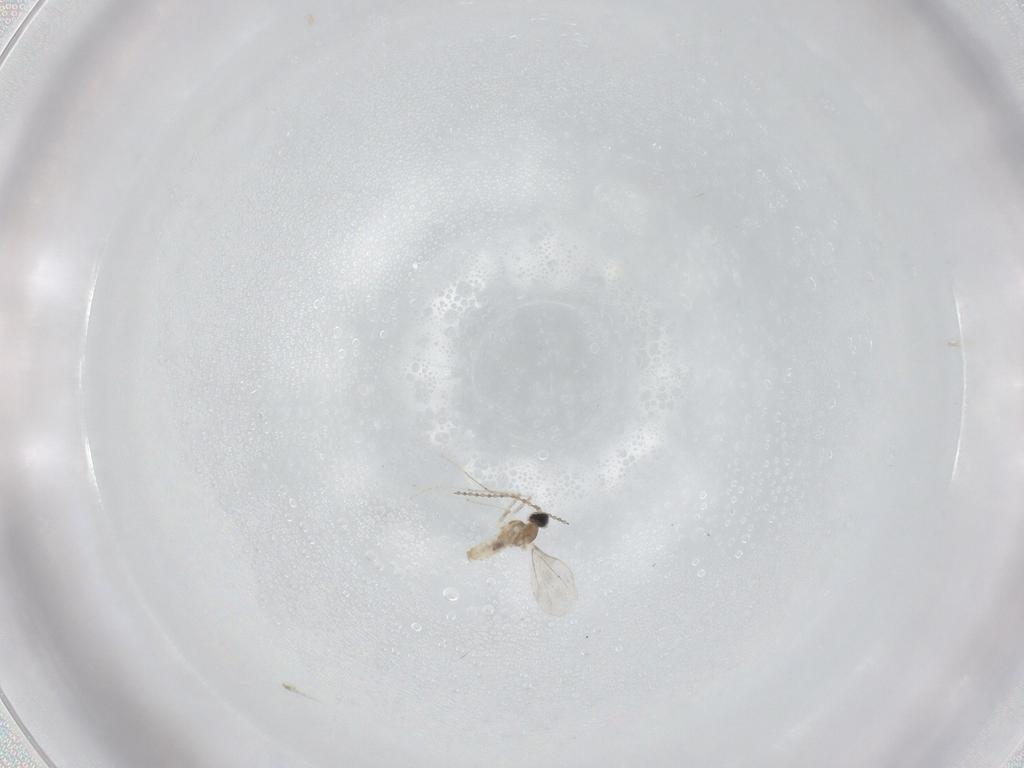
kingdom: Animalia
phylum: Arthropoda
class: Insecta
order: Diptera
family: Cecidomyiidae
